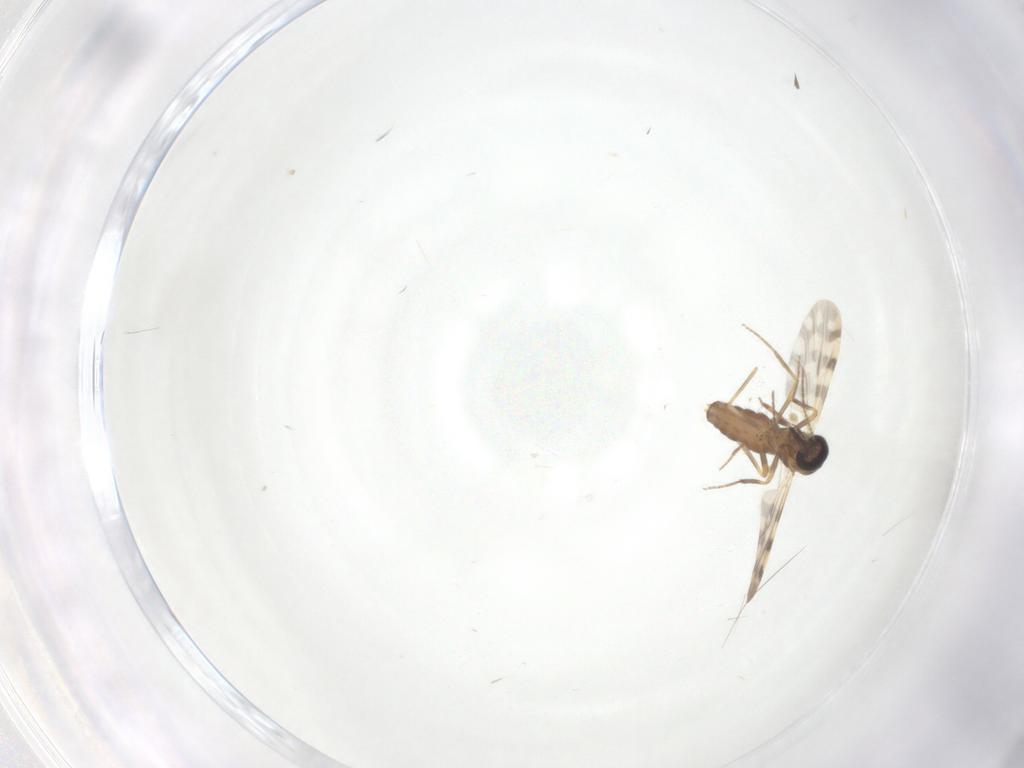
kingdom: Animalia
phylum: Arthropoda
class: Insecta
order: Diptera
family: Ceratopogonidae
